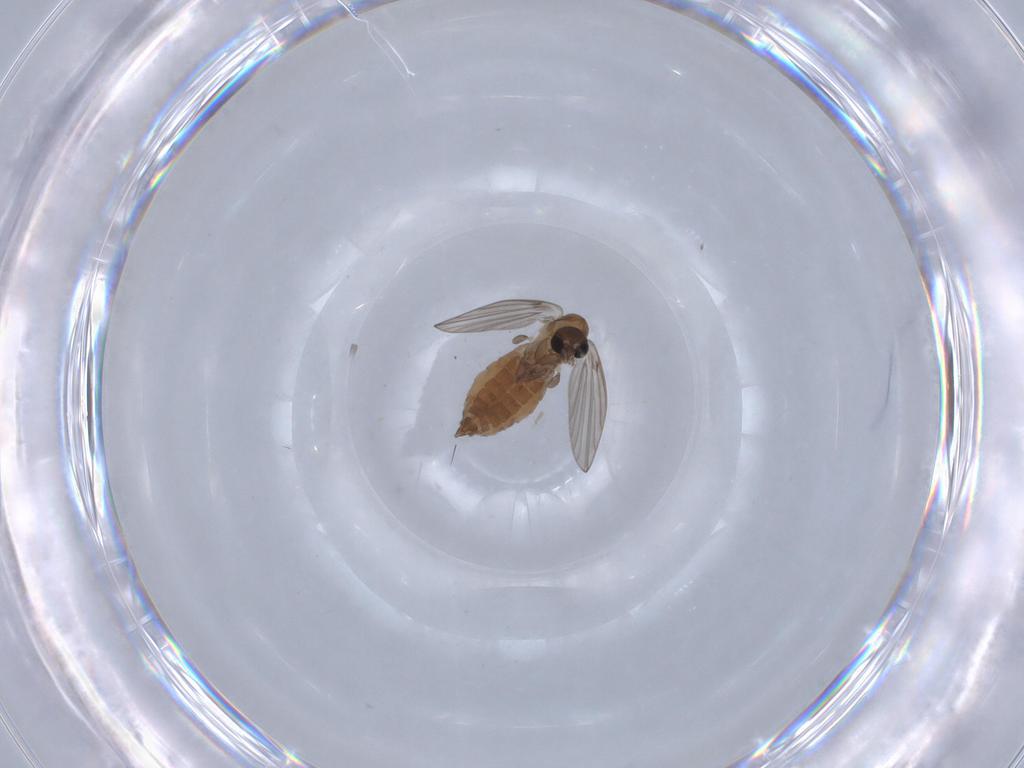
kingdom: Animalia
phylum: Arthropoda
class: Insecta
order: Diptera
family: Psychodidae
